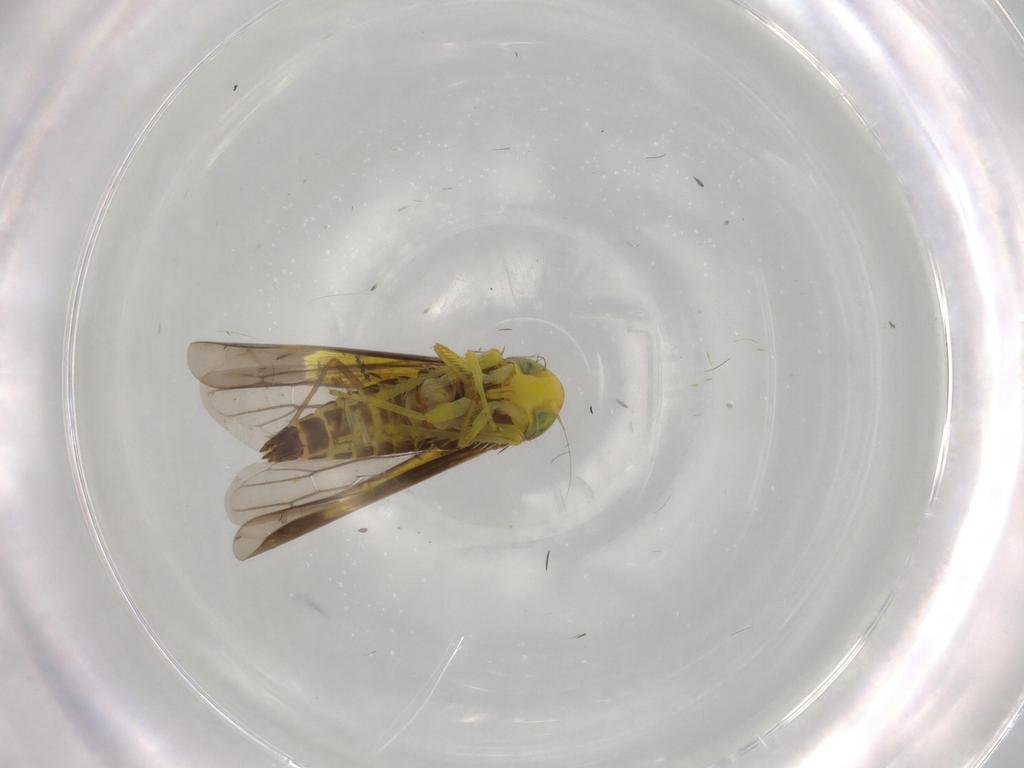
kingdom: Animalia
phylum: Arthropoda
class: Insecta
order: Hemiptera
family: Cicadellidae
